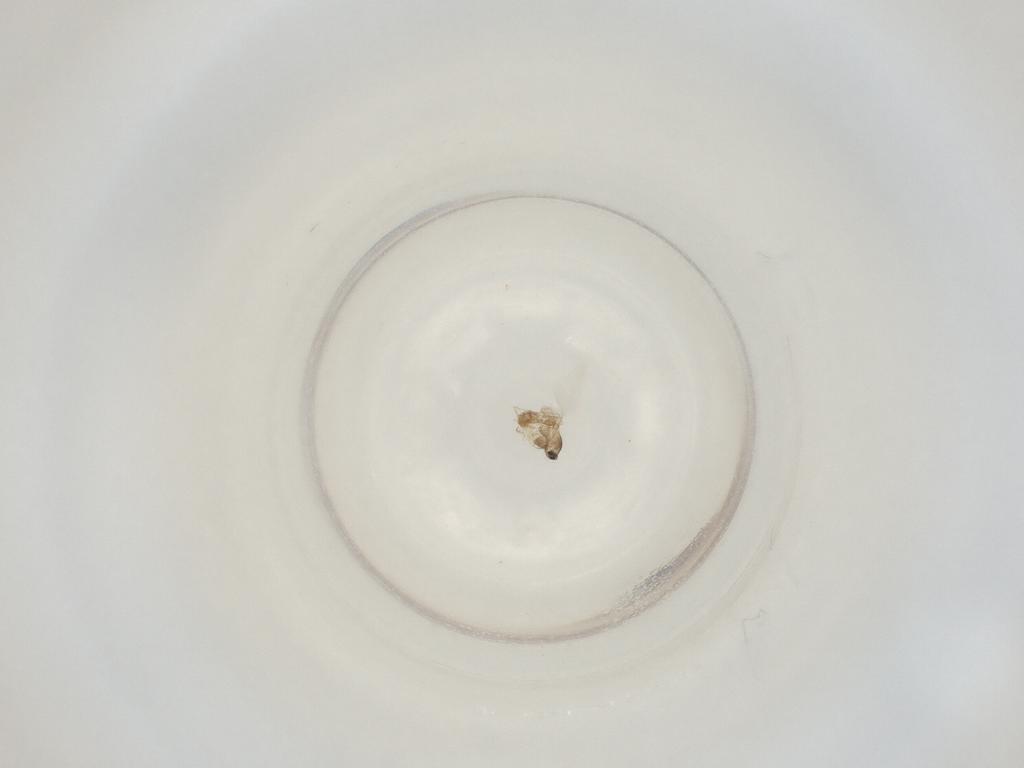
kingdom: Animalia
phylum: Arthropoda
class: Insecta
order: Diptera
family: Cecidomyiidae
